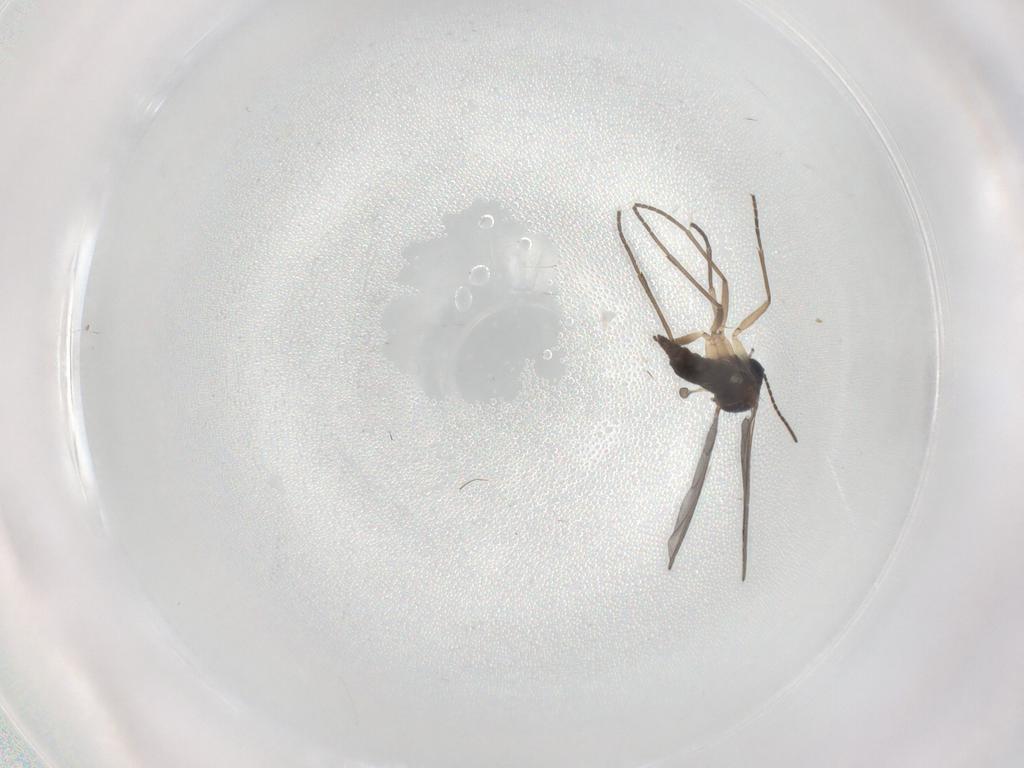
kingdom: Animalia
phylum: Arthropoda
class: Insecta
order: Diptera
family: Sciaridae
